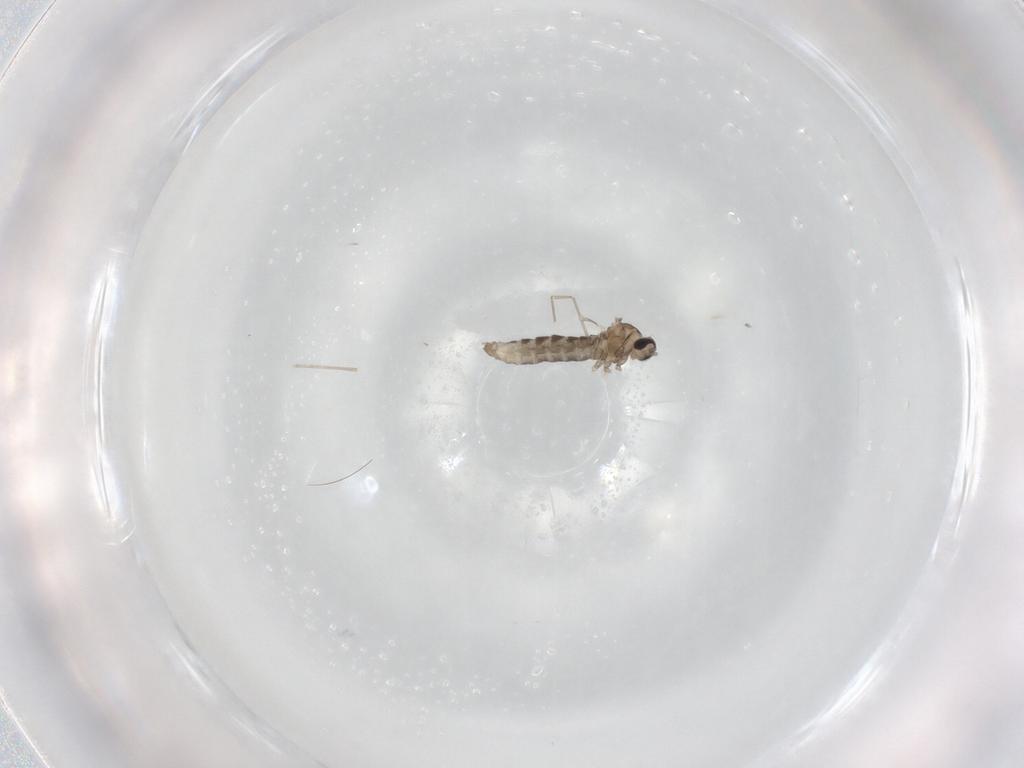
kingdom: Animalia
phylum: Arthropoda
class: Insecta
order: Diptera
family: Cecidomyiidae
